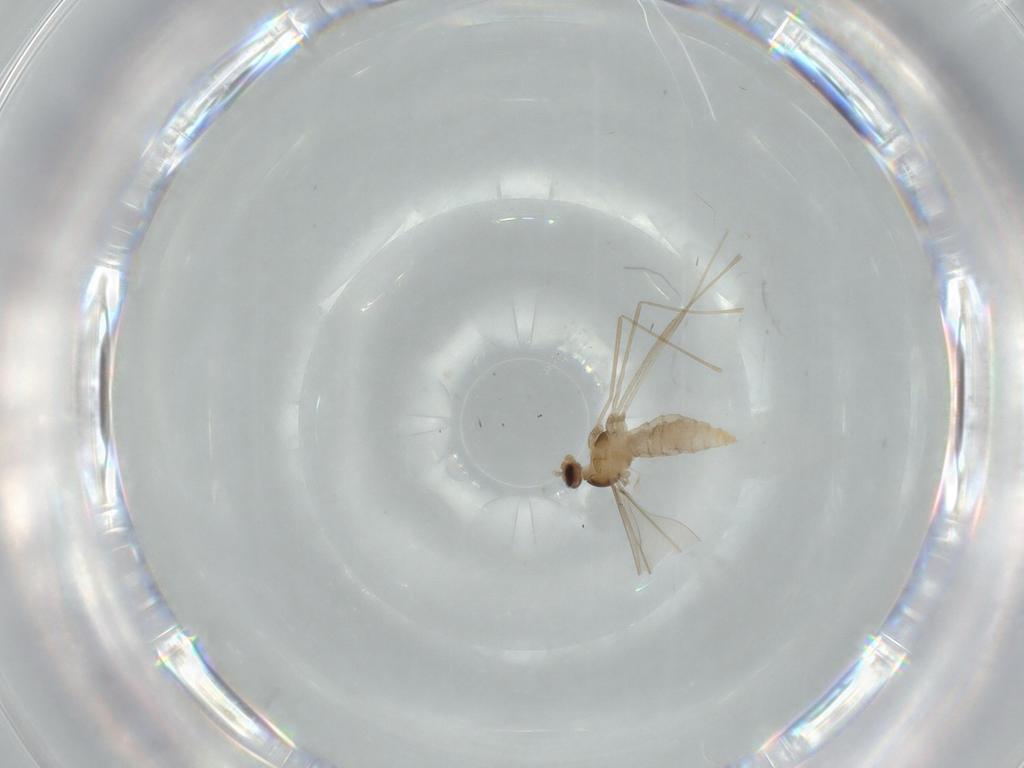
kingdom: Animalia
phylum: Arthropoda
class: Insecta
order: Diptera
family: Cecidomyiidae
